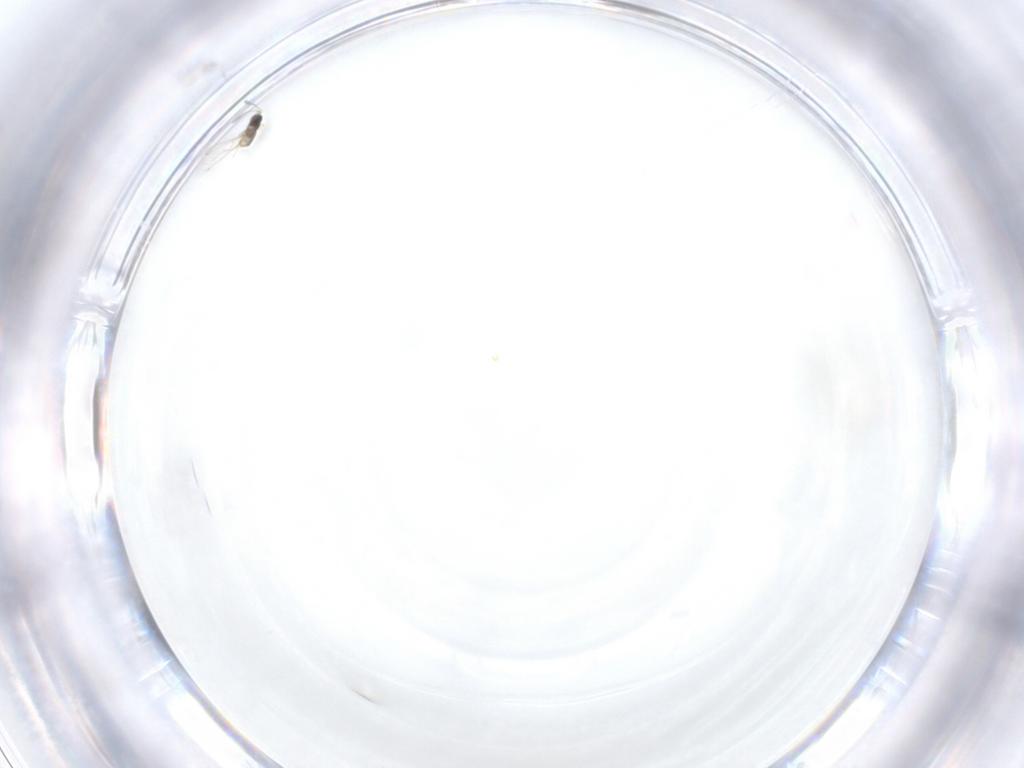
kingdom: Animalia
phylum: Arthropoda
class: Insecta
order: Hymenoptera
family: Mymaridae
